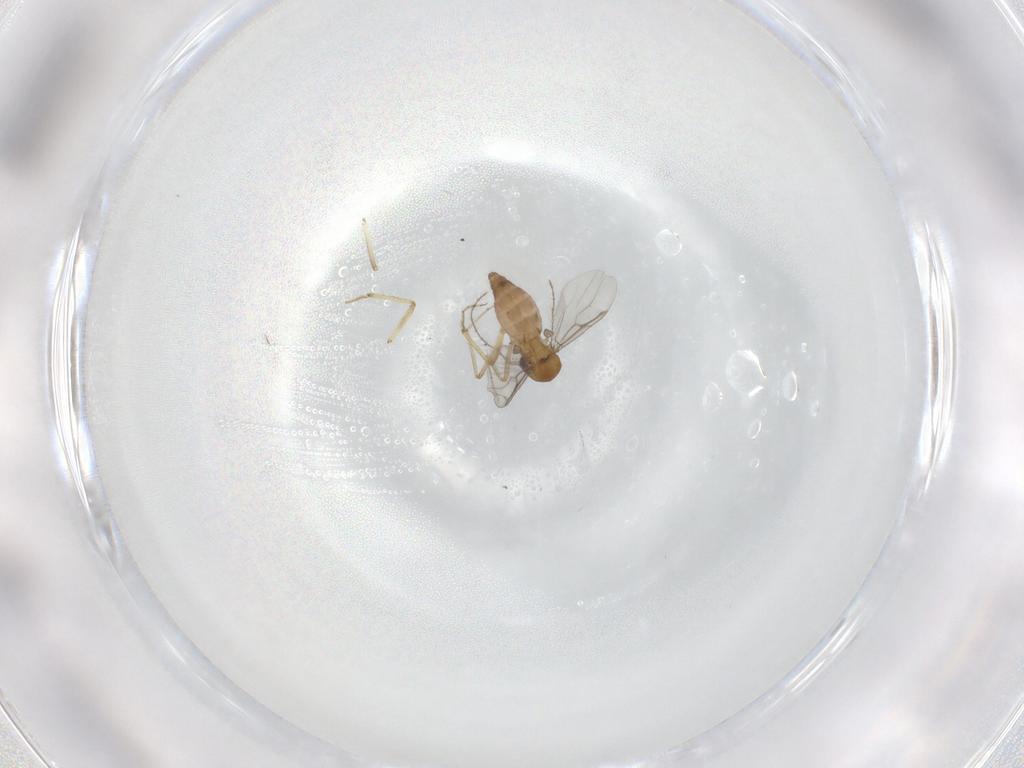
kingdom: Animalia
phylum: Arthropoda
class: Insecta
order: Diptera
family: Ceratopogonidae
